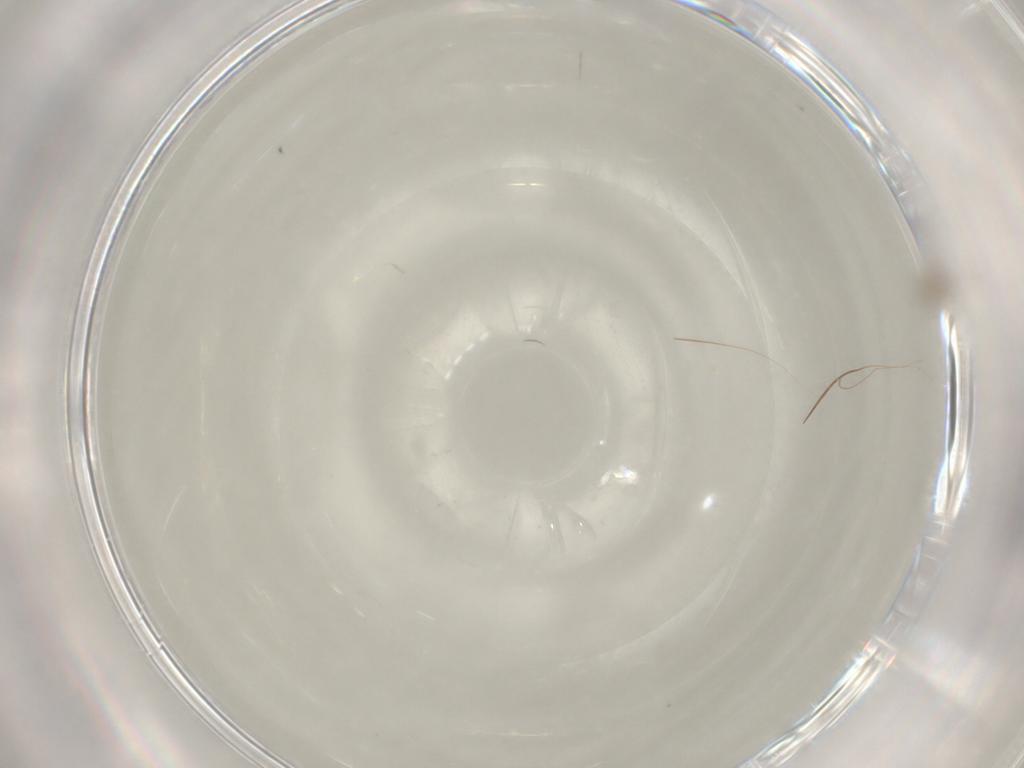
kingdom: Animalia
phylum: Arthropoda
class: Insecta
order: Diptera
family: Cecidomyiidae
